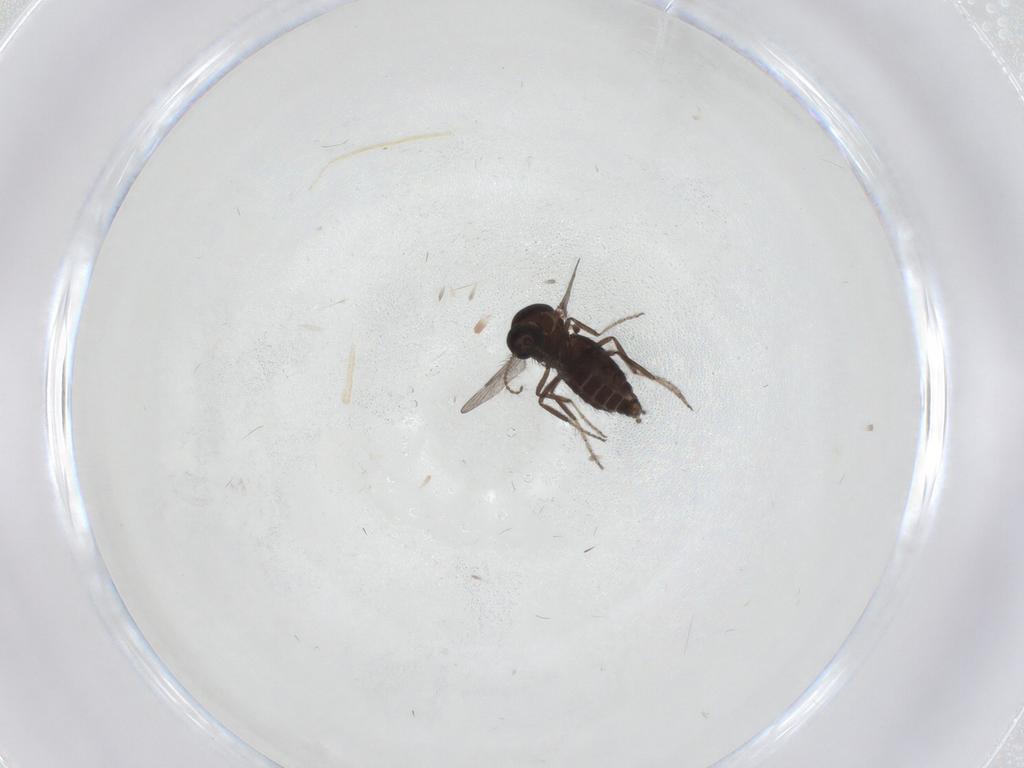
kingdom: Animalia
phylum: Arthropoda
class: Insecta
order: Diptera
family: Ceratopogonidae
